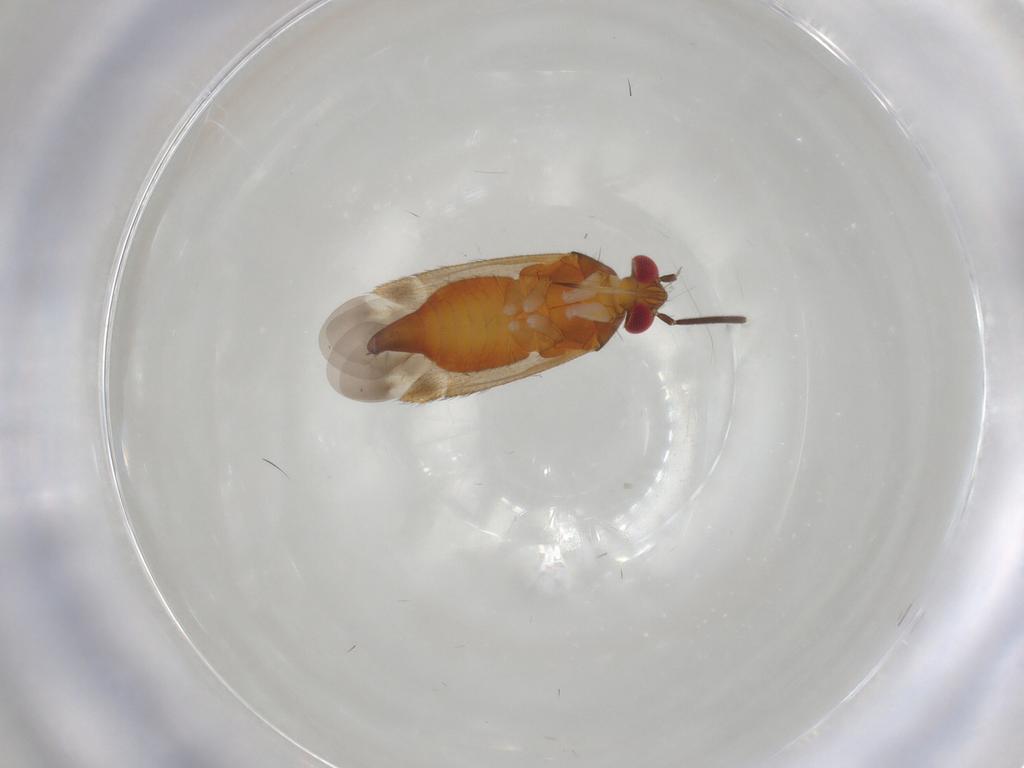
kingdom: Animalia
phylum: Arthropoda
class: Insecta
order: Hemiptera
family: Miridae
